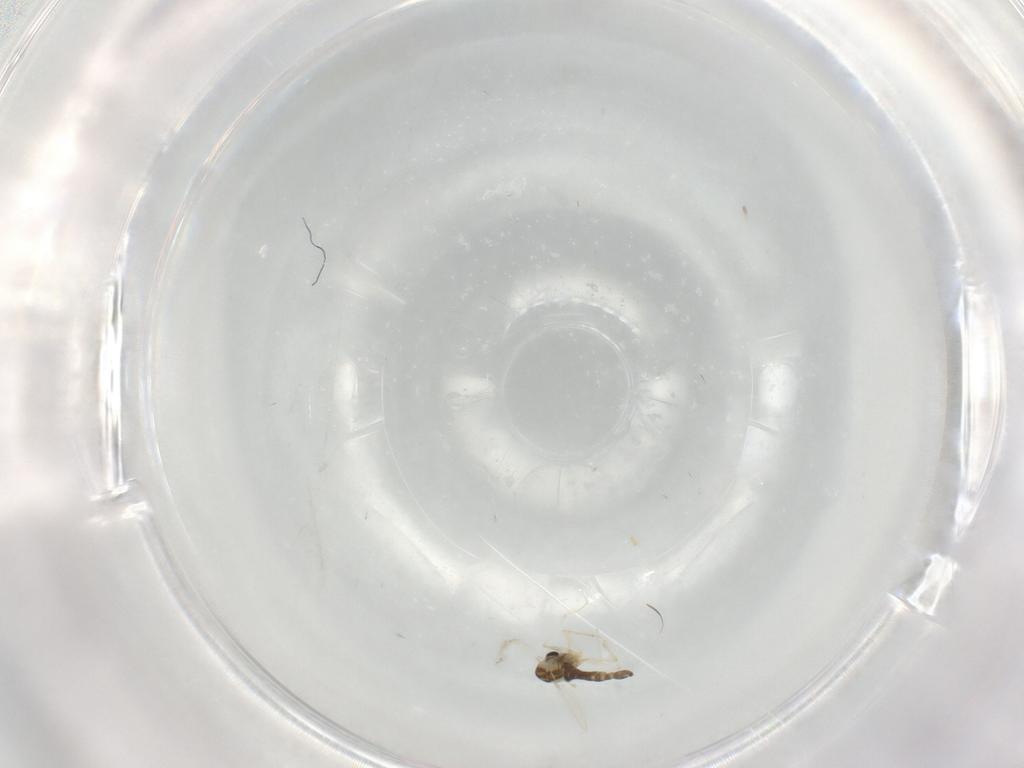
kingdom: Animalia
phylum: Arthropoda
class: Insecta
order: Diptera
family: Chironomidae
